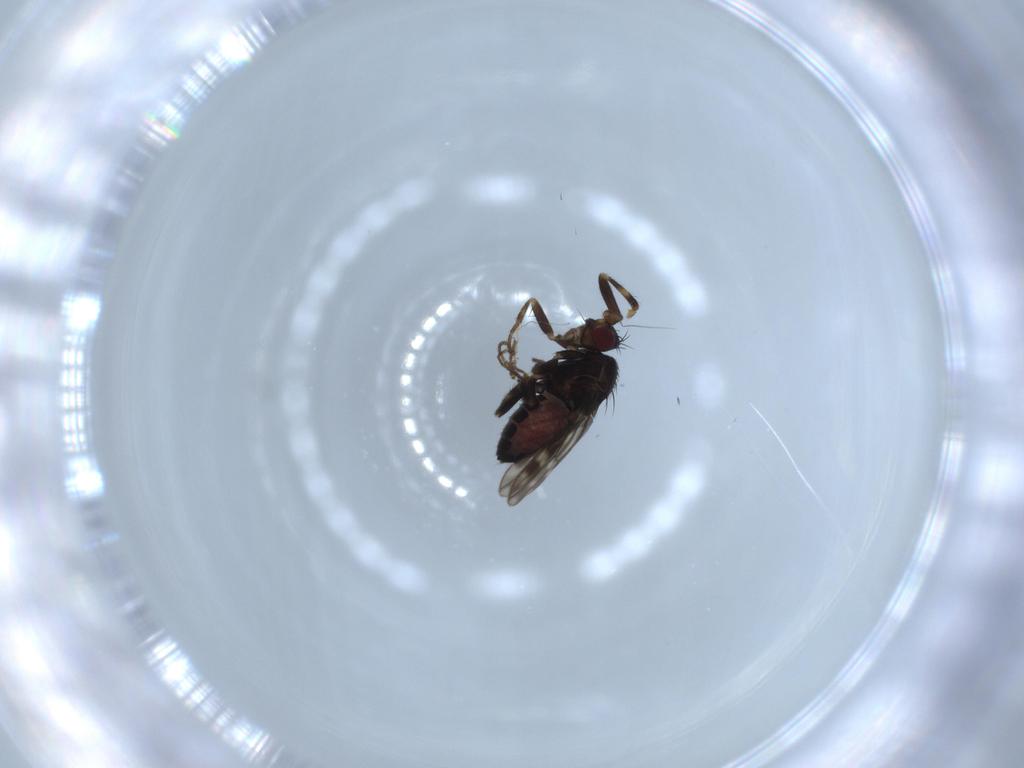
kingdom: Animalia
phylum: Arthropoda
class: Insecta
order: Diptera
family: Sphaeroceridae
